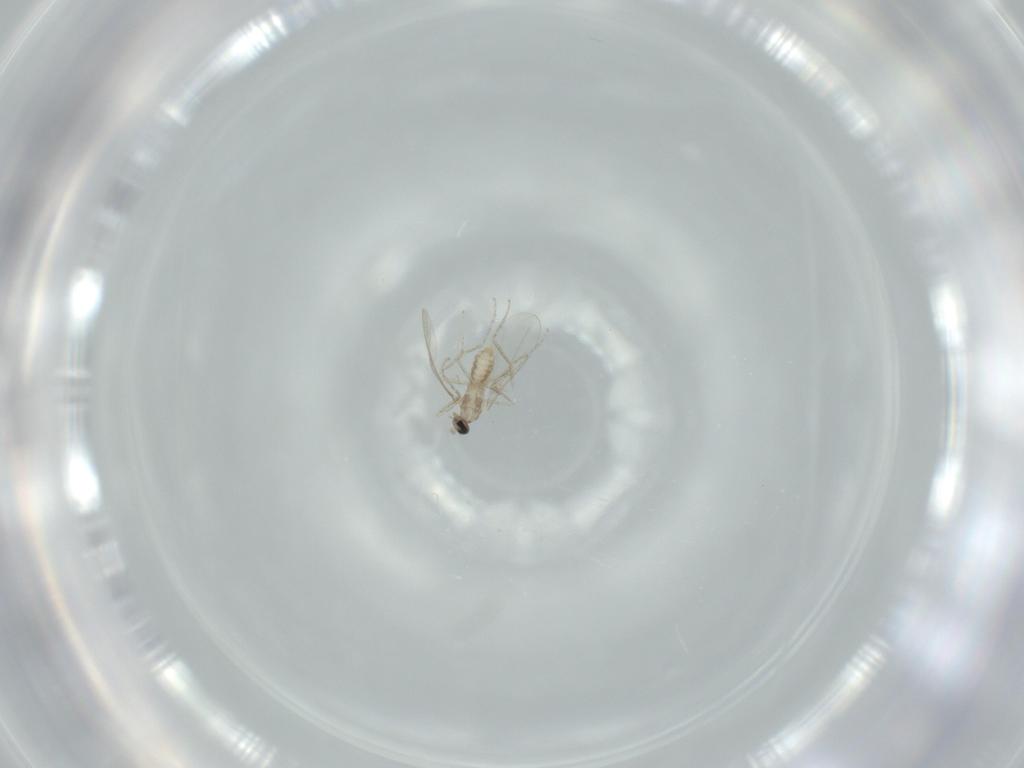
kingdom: Animalia
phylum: Arthropoda
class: Insecta
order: Diptera
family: Cecidomyiidae
